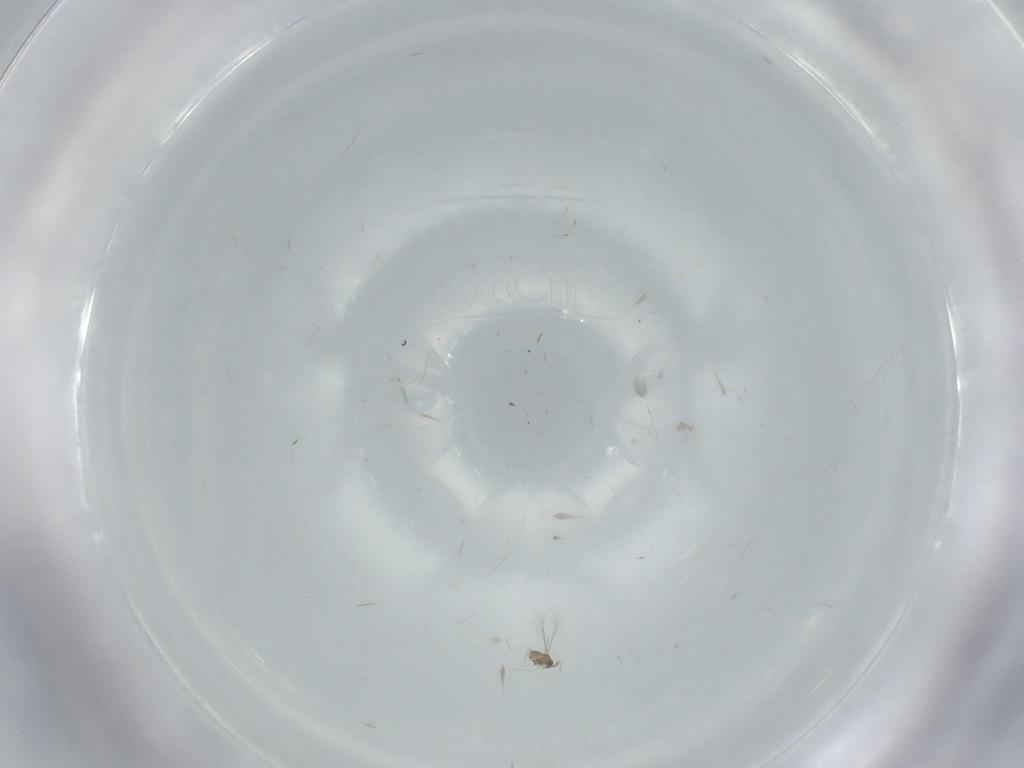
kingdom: Animalia
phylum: Arthropoda
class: Insecta
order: Hymenoptera
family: Mymaridae
